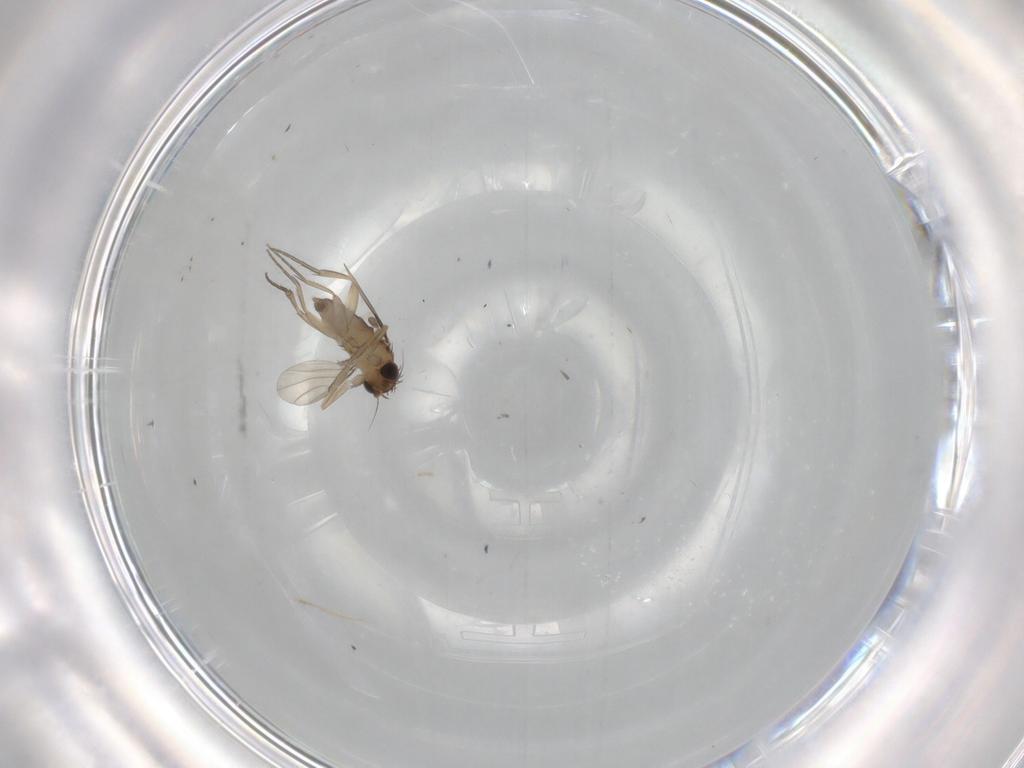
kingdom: Animalia
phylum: Arthropoda
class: Insecta
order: Diptera
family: Phoridae
